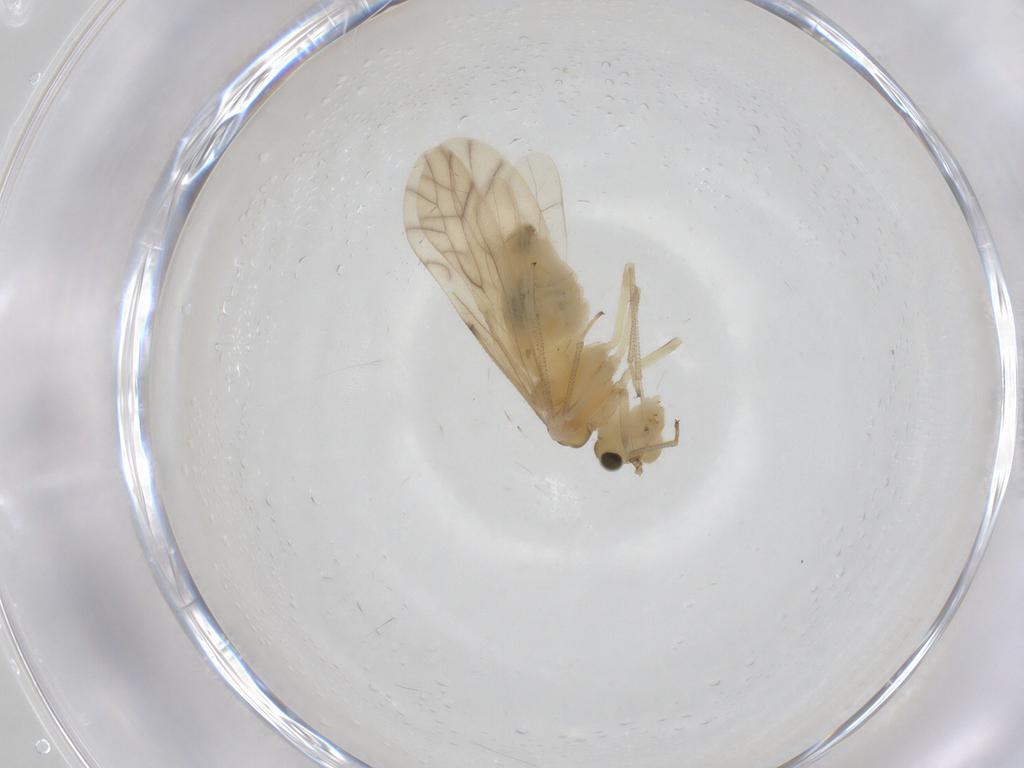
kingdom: Animalia
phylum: Arthropoda
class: Insecta
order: Psocodea
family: Caeciliusidae
